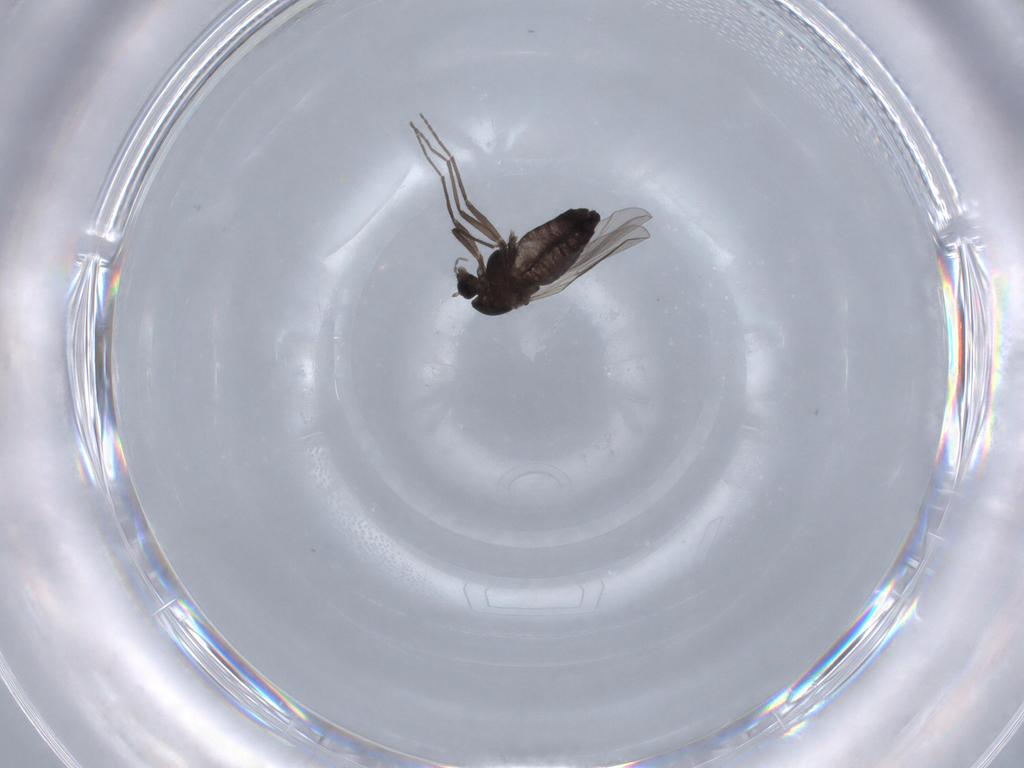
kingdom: Animalia
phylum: Arthropoda
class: Insecta
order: Diptera
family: Chironomidae
